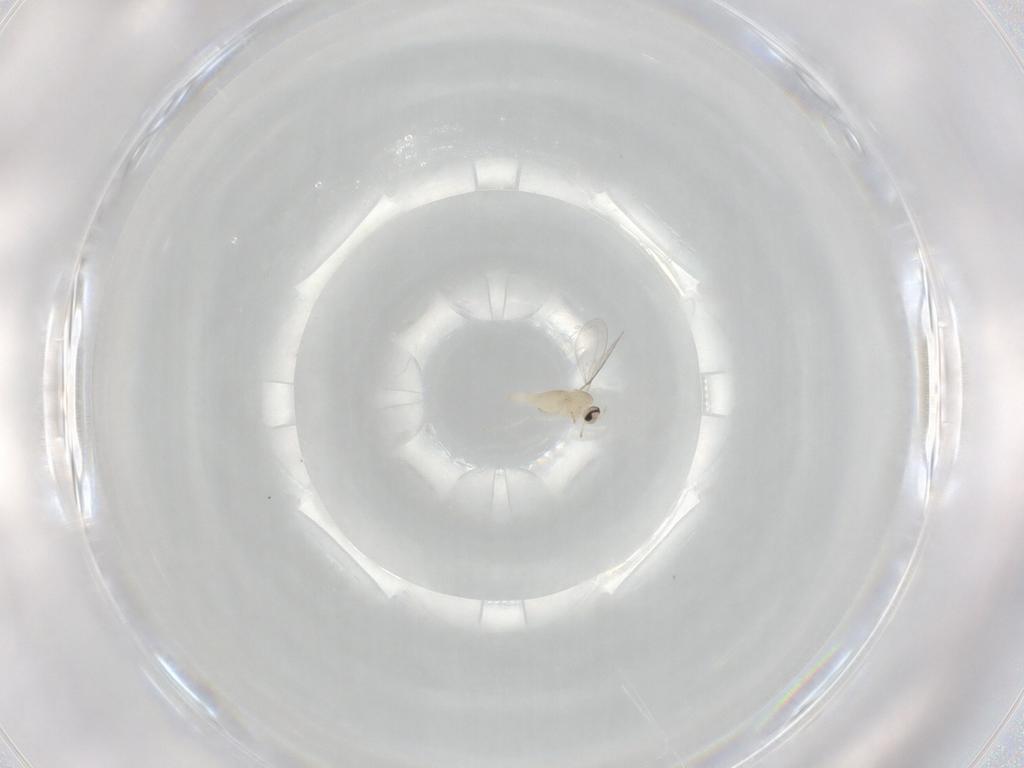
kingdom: Animalia
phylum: Arthropoda
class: Insecta
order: Diptera
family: Cecidomyiidae
